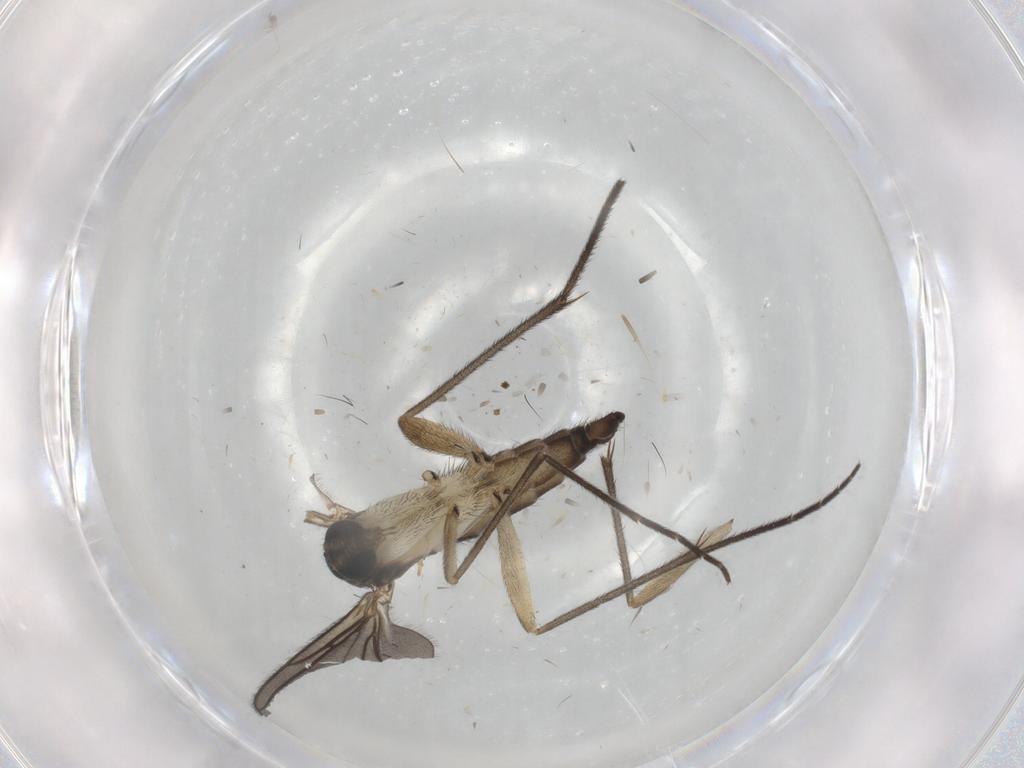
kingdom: Animalia
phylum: Arthropoda
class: Insecta
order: Diptera
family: Sciaridae
